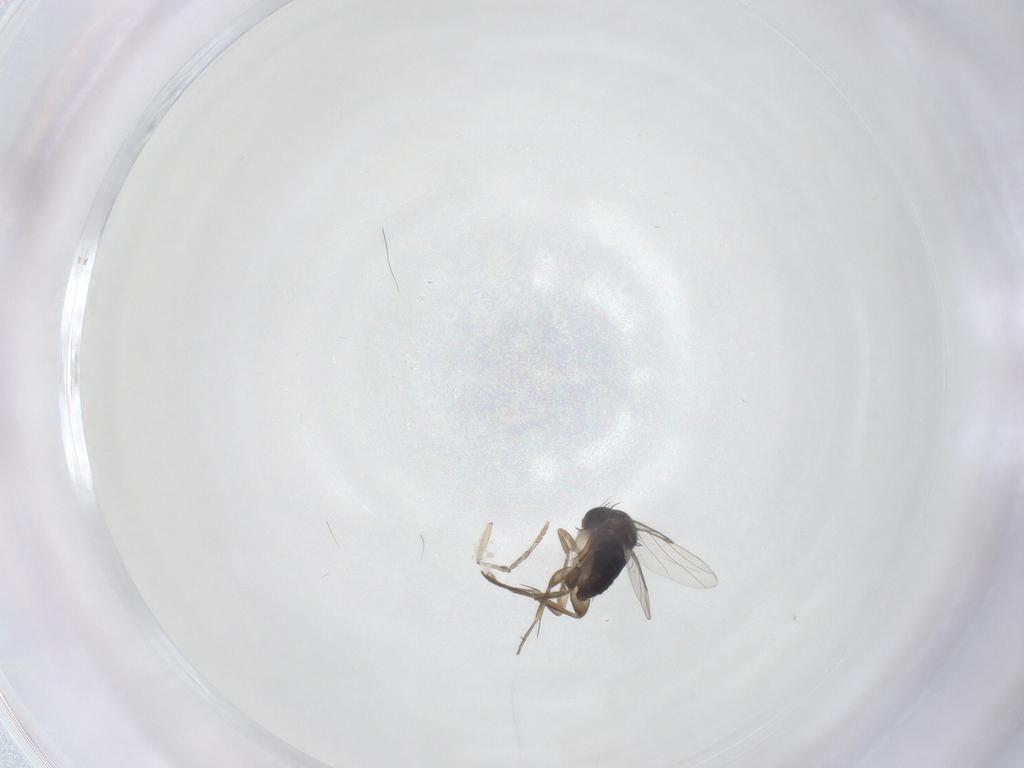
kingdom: Animalia
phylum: Arthropoda
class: Insecta
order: Diptera
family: Phoridae
